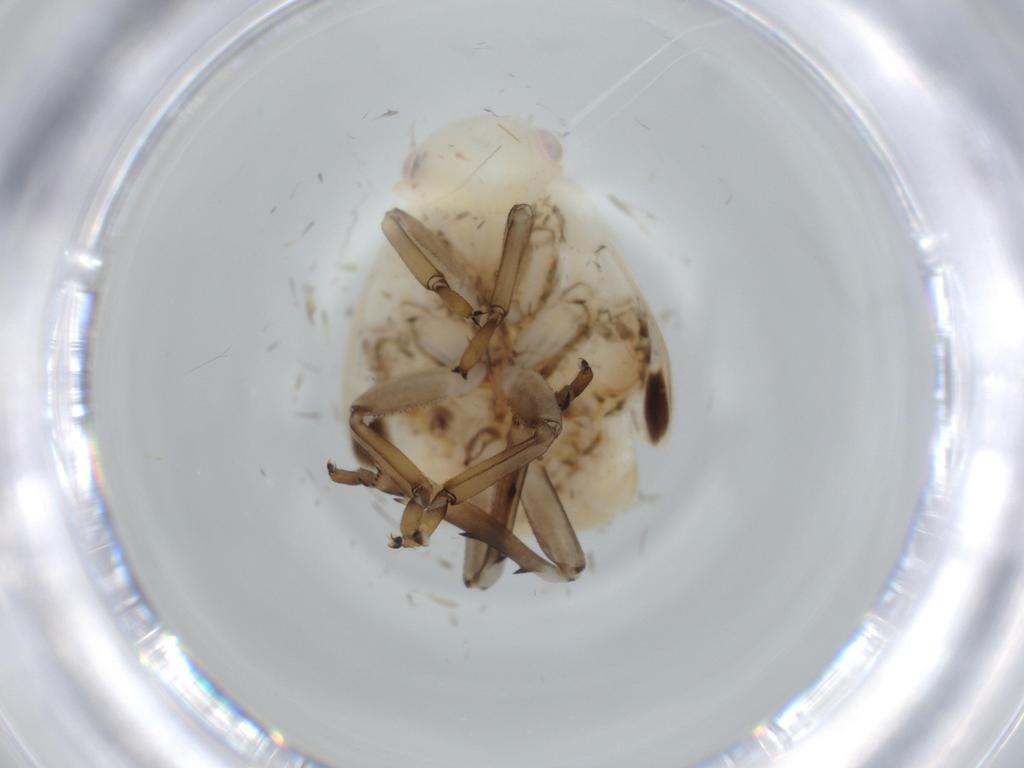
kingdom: Animalia
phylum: Arthropoda
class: Insecta
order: Hemiptera
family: Flatidae
